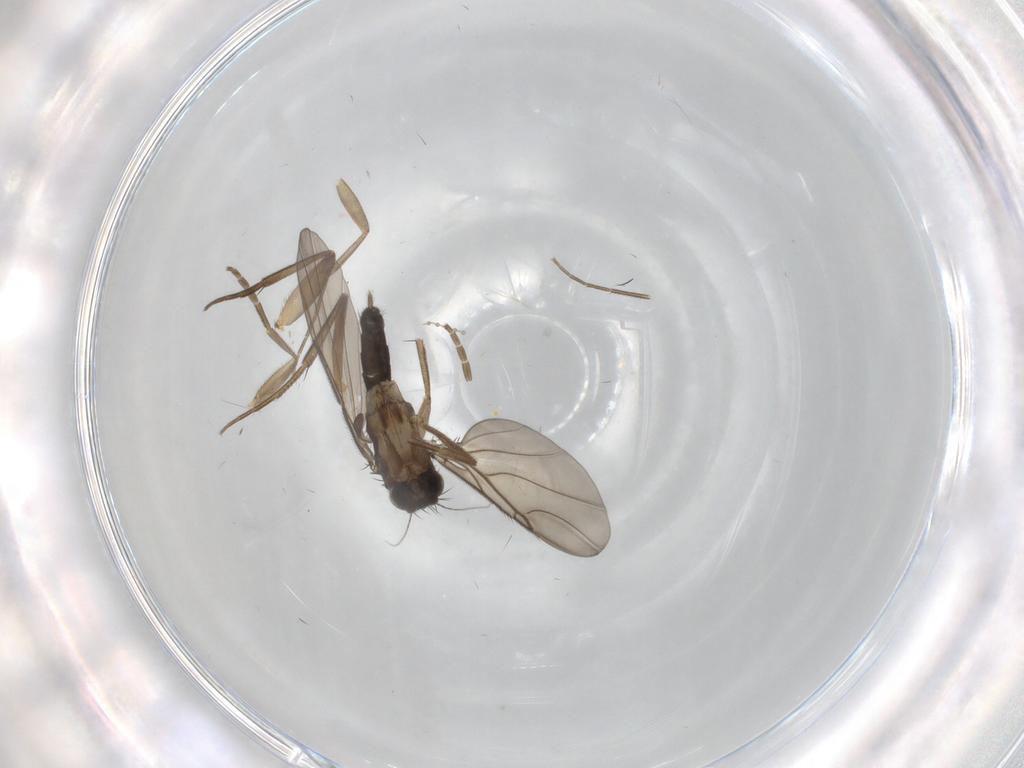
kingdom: Animalia
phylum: Arthropoda
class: Insecta
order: Diptera
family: Phoridae
